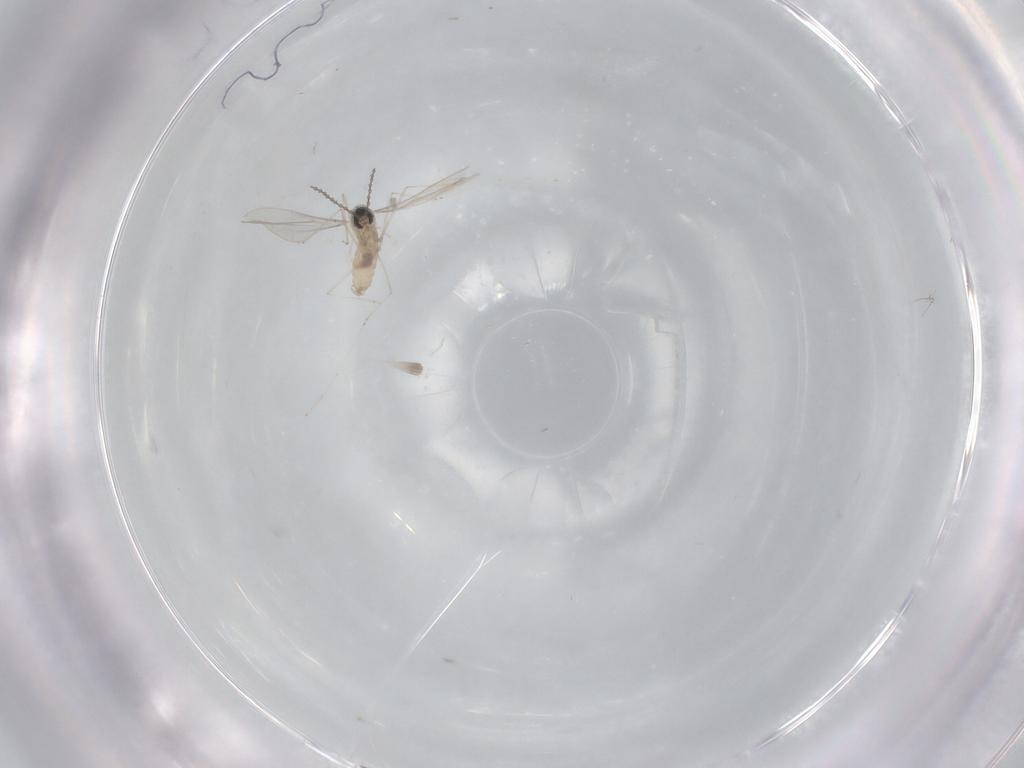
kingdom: Animalia
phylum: Arthropoda
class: Insecta
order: Diptera
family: Cecidomyiidae
